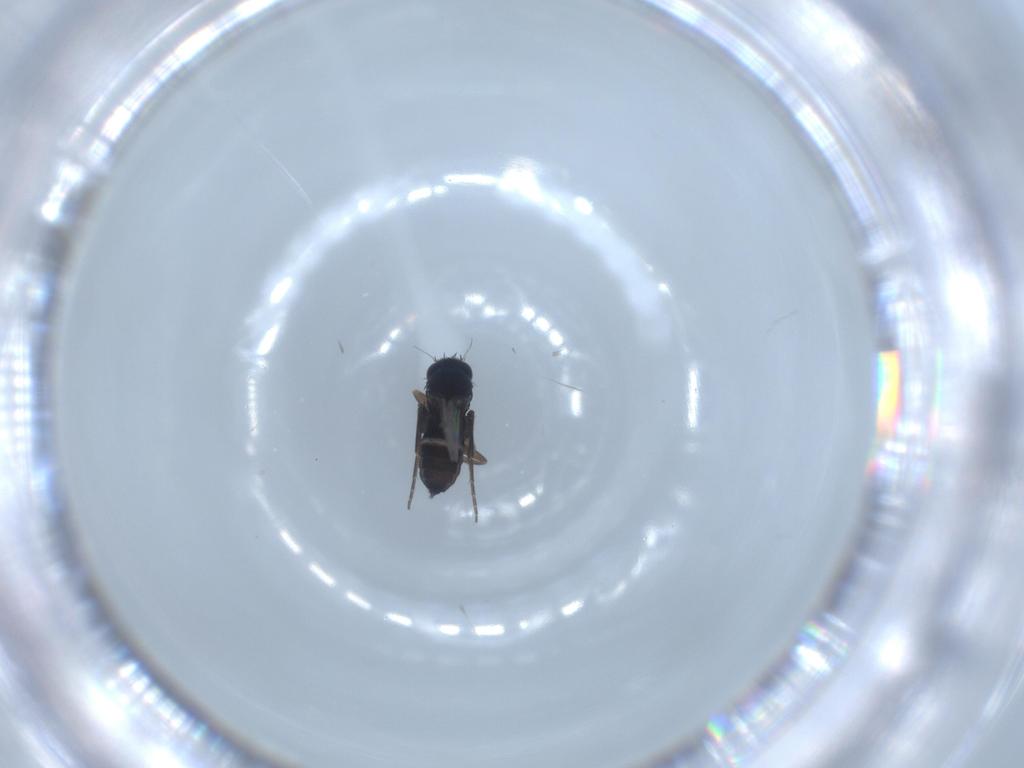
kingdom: Animalia
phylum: Arthropoda
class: Insecta
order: Diptera
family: Phoridae
